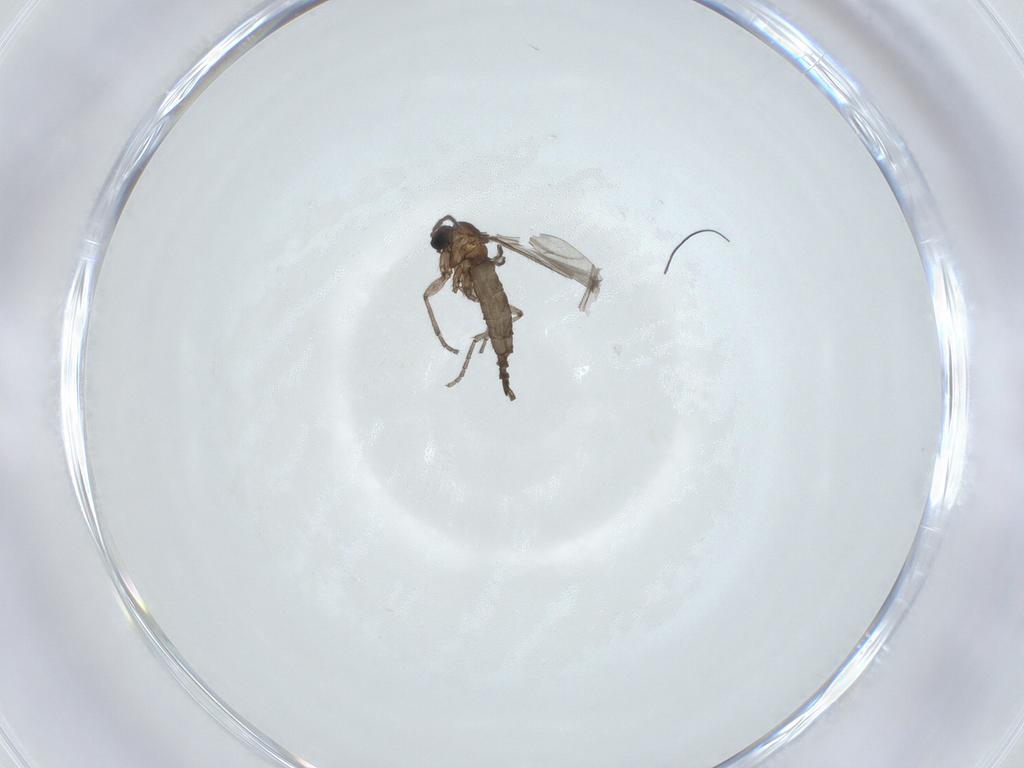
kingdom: Animalia
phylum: Arthropoda
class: Insecta
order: Diptera
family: Sciaridae
